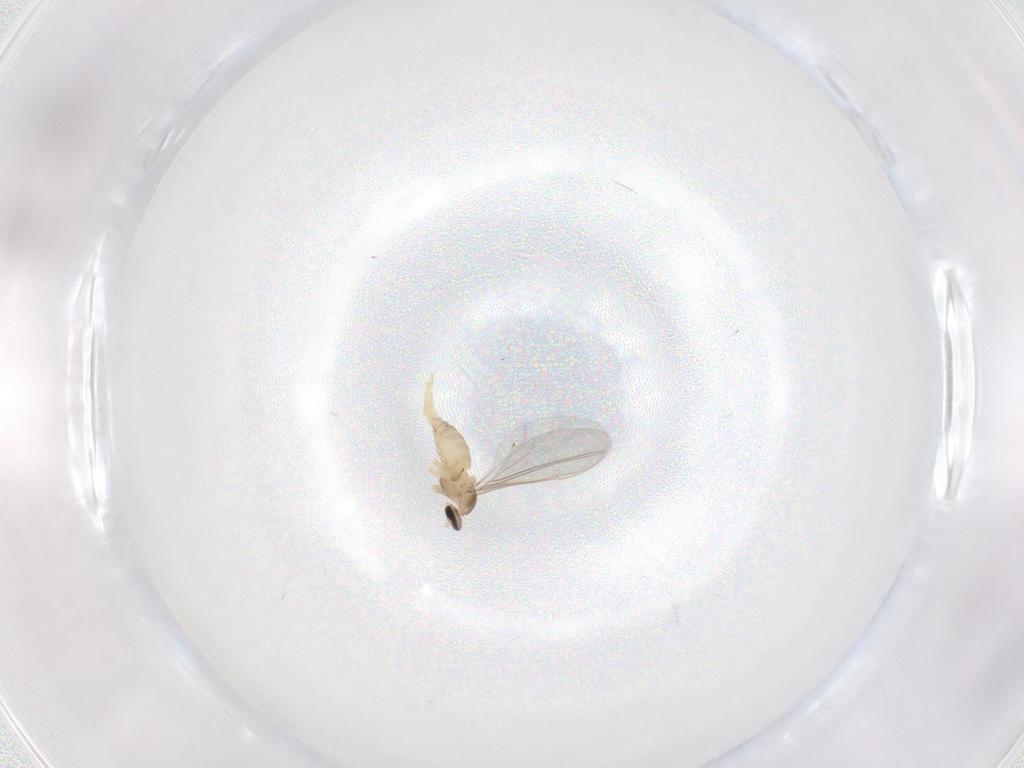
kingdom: Animalia
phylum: Arthropoda
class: Insecta
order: Diptera
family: Cecidomyiidae
